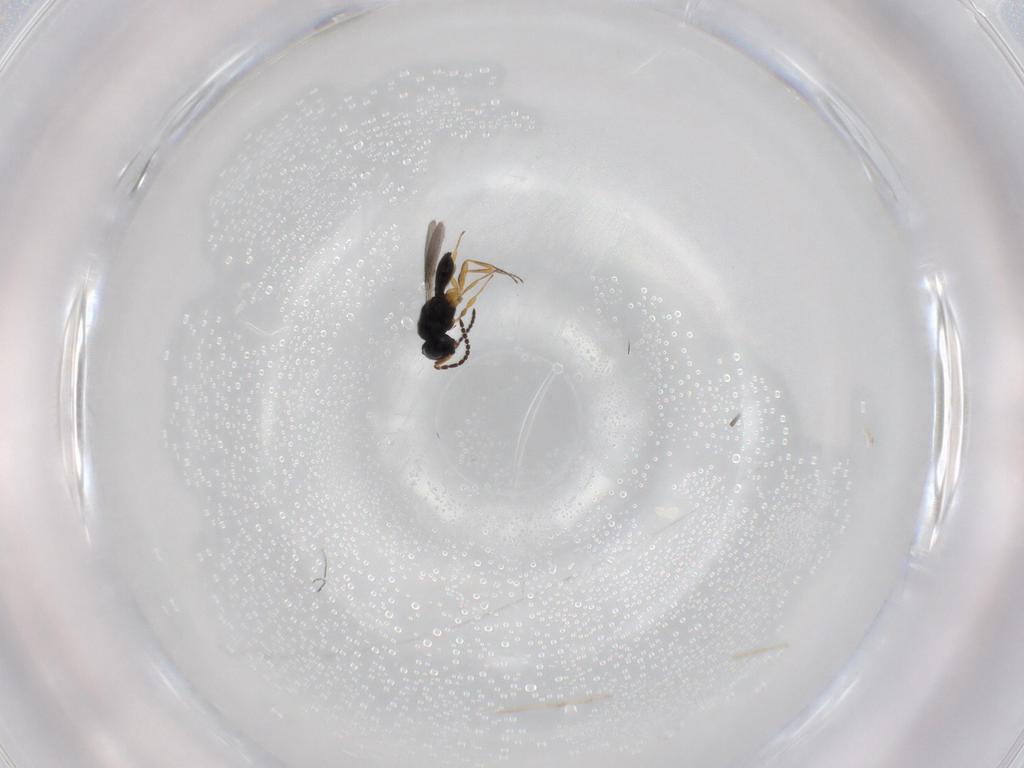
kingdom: Animalia
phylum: Arthropoda
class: Insecta
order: Hymenoptera
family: Scelionidae
